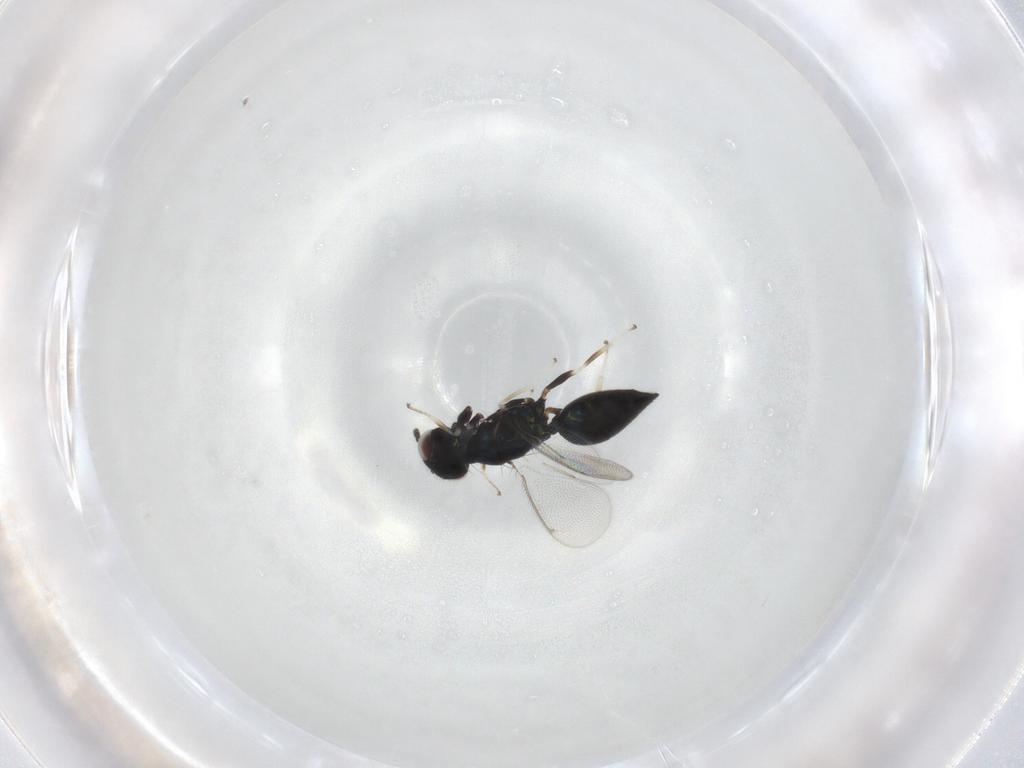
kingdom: Animalia
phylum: Arthropoda
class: Insecta
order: Hymenoptera
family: Eulophidae
